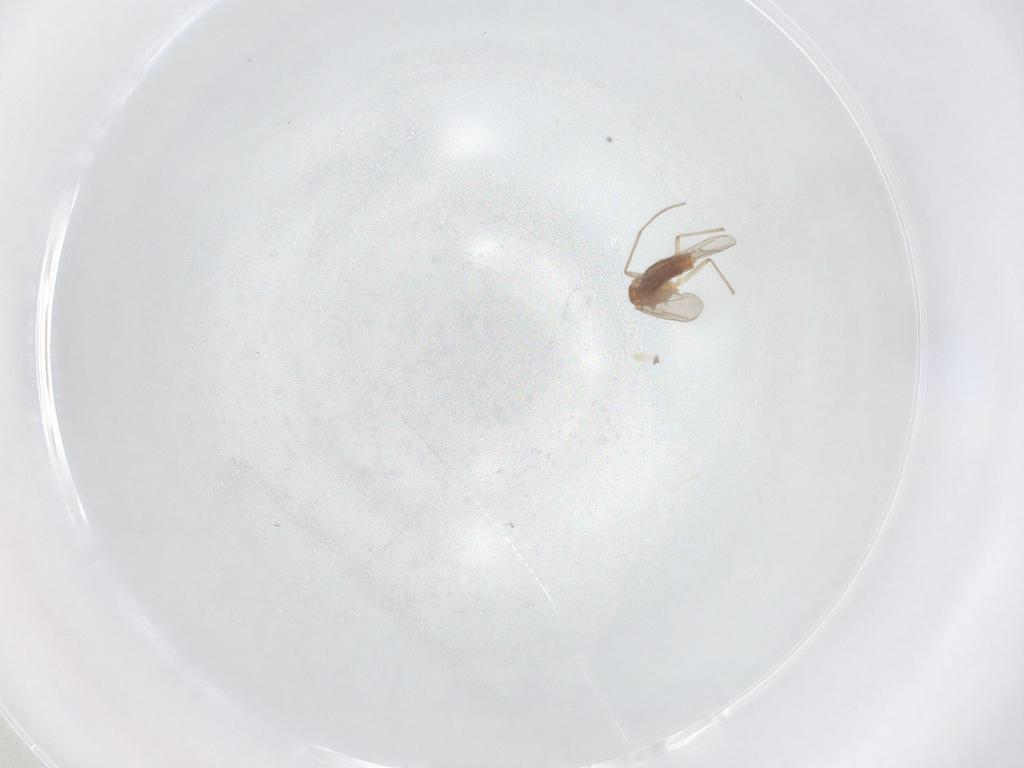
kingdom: Animalia
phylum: Arthropoda
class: Insecta
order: Diptera
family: Chironomidae
